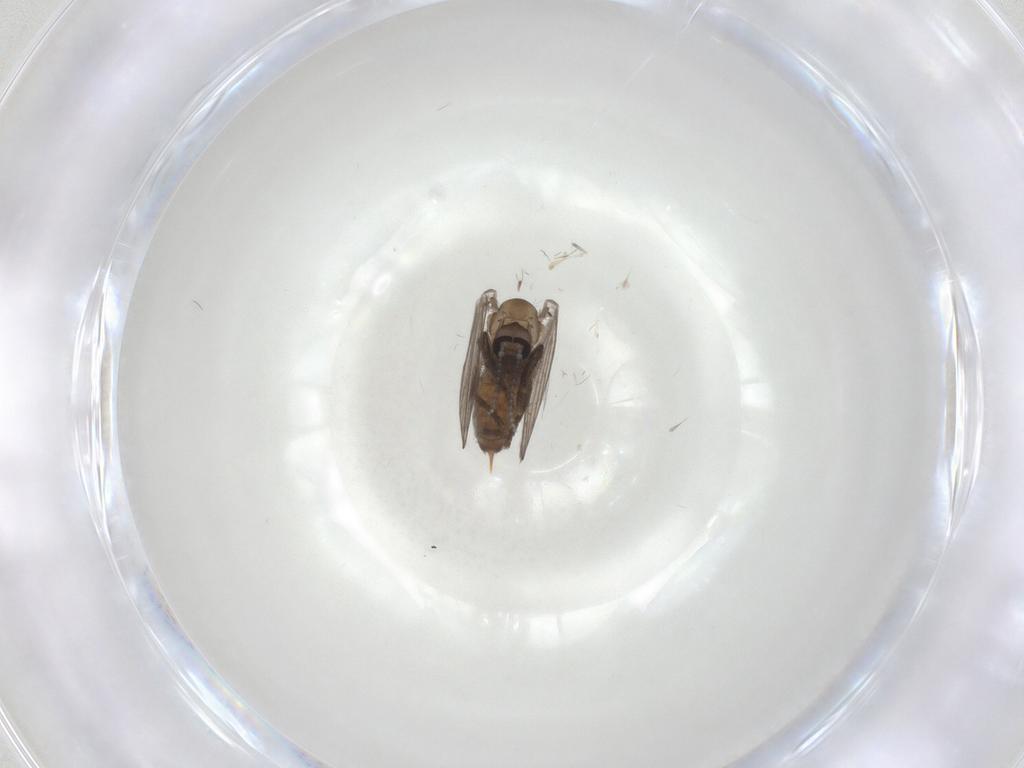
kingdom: Animalia
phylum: Arthropoda
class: Insecta
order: Diptera
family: Psychodidae
